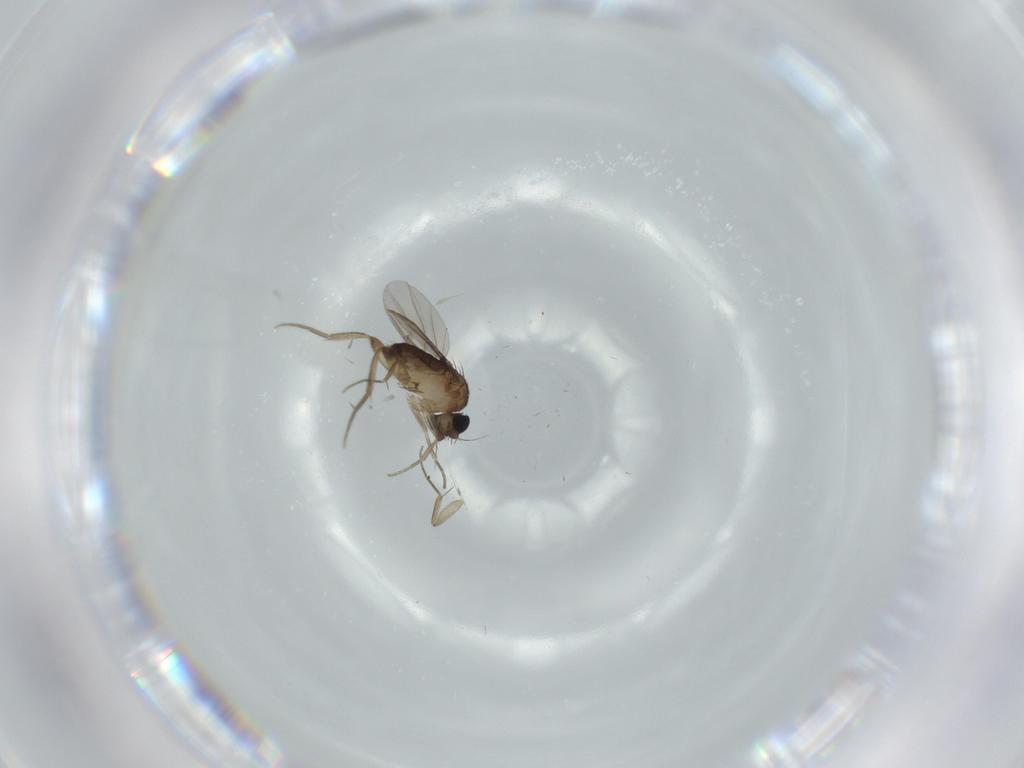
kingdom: Animalia
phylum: Arthropoda
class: Insecta
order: Diptera
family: Phoridae
